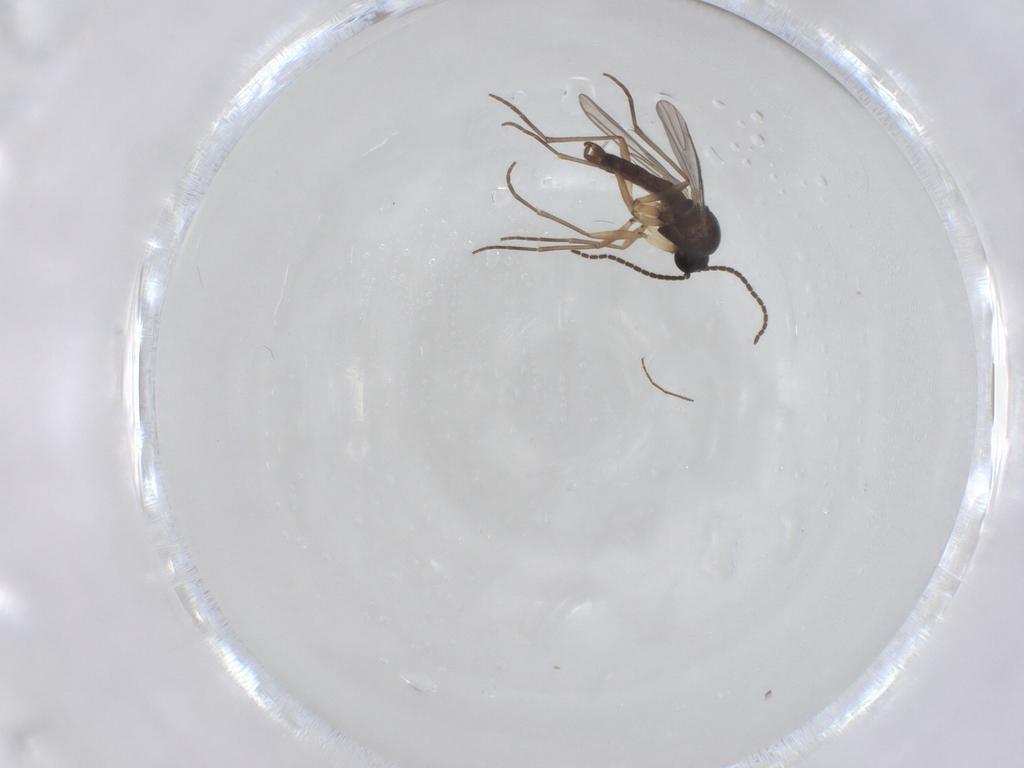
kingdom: Animalia
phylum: Arthropoda
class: Insecta
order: Diptera
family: Sciaridae
